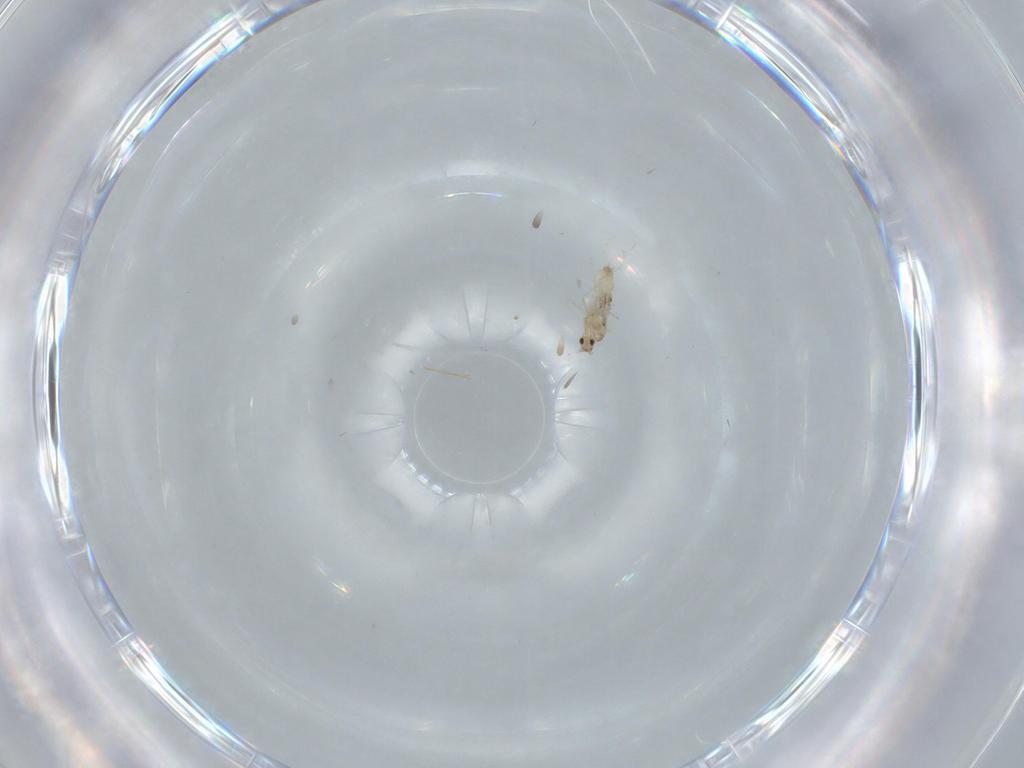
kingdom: Animalia
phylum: Arthropoda
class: Insecta
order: Diptera
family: Cecidomyiidae
